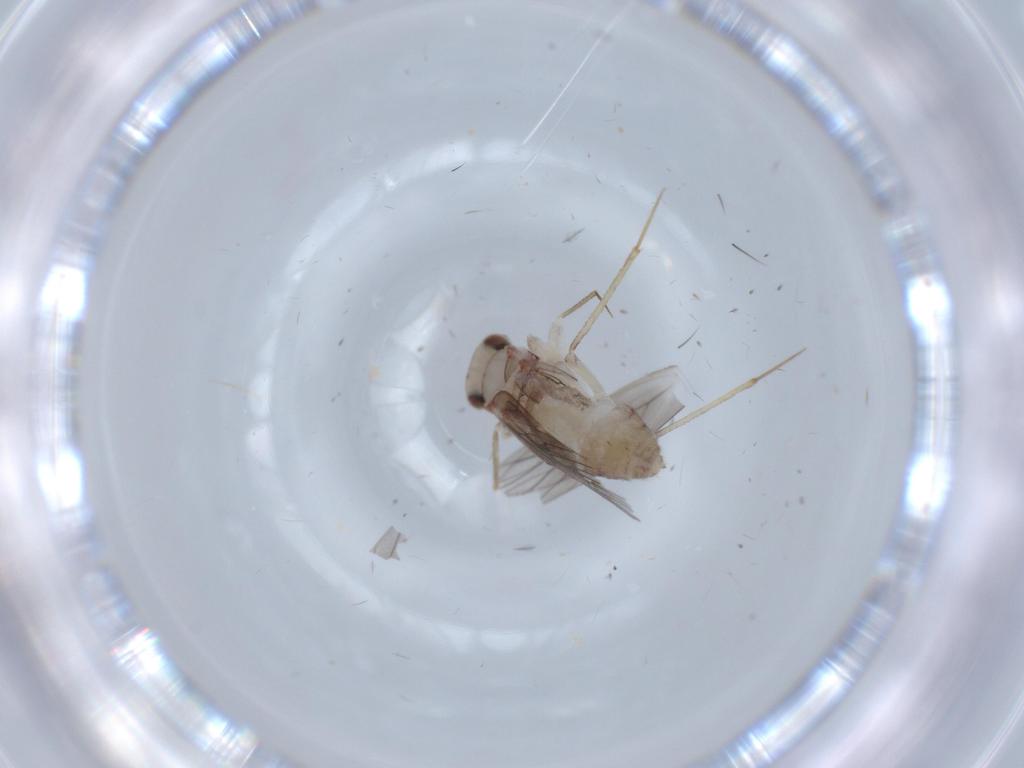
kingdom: Animalia
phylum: Arthropoda
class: Insecta
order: Psocodea
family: Lepidopsocidae
